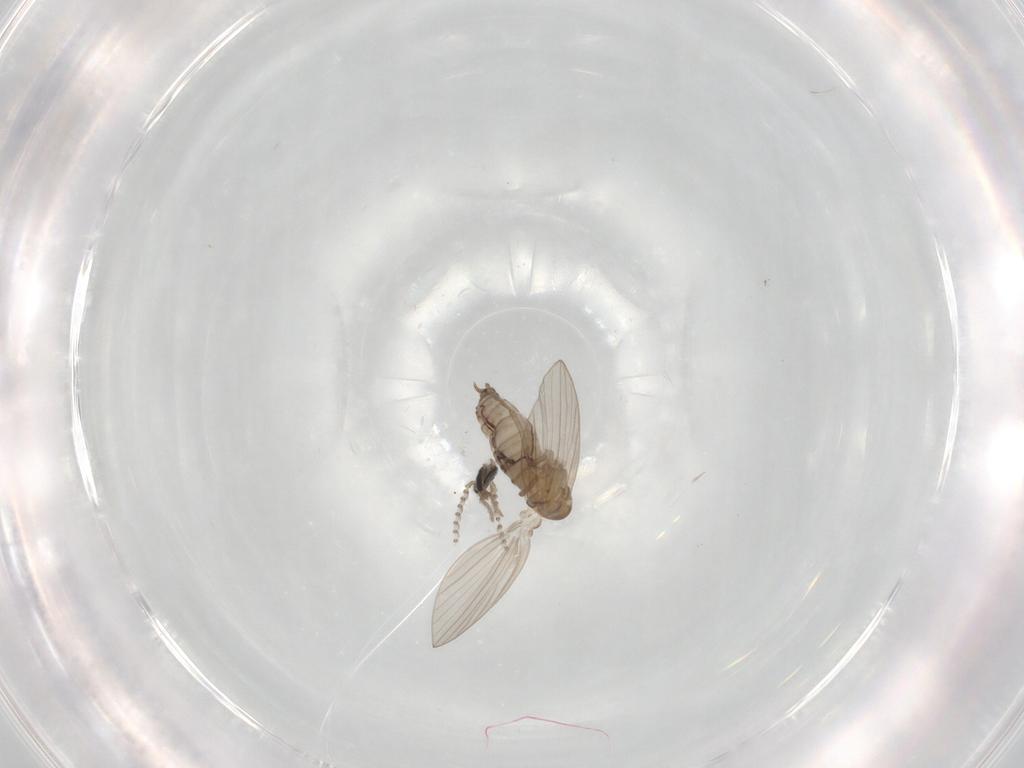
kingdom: Animalia
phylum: Arthropoda
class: Insecta
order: Diptera
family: Psychodidae
